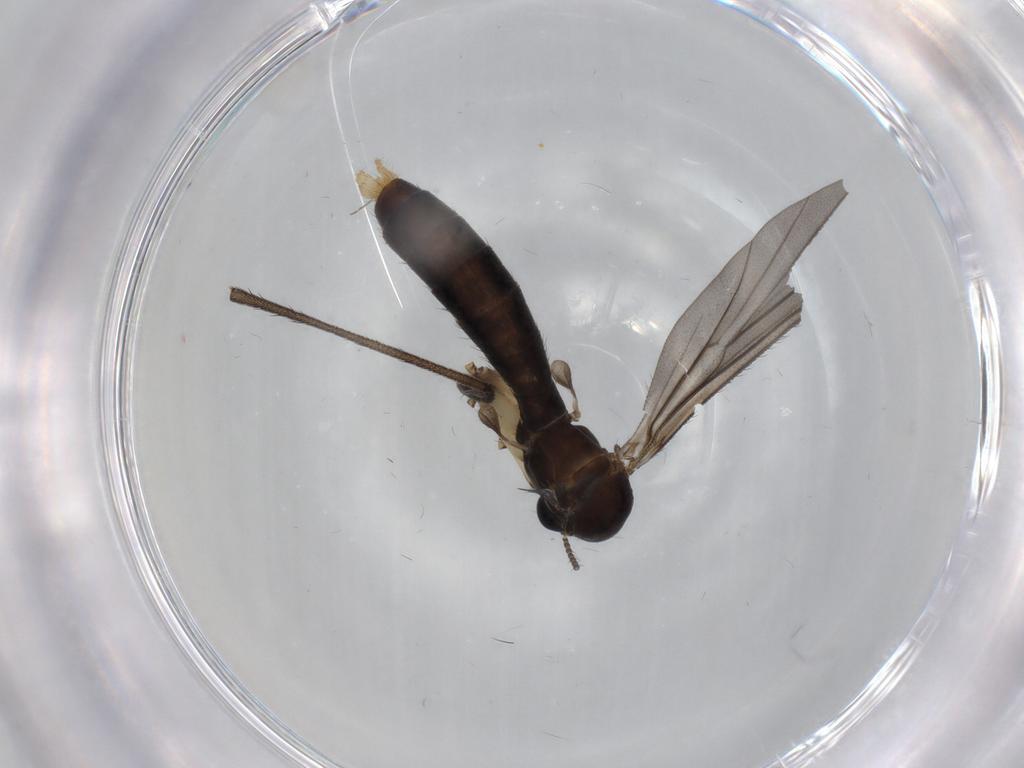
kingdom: Animalia
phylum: Arthropoda
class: Insecta
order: Diptera
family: Chironomidae
